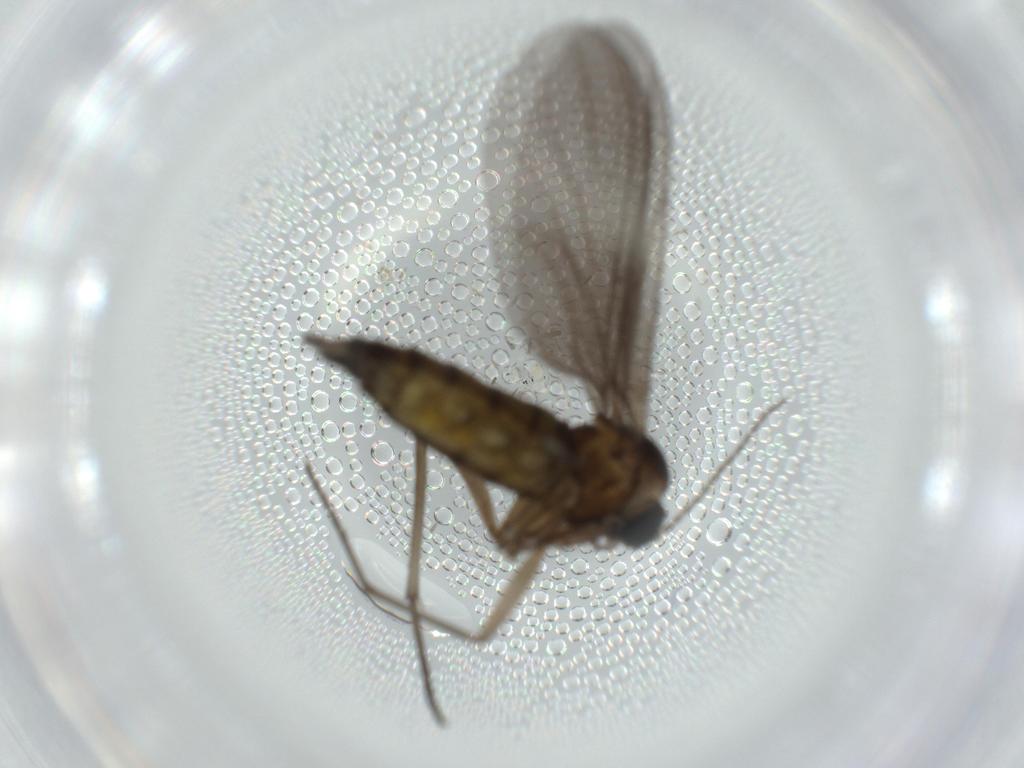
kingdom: Animalia
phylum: Arthropoda
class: Insecta
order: Diptera
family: Sciaridae
